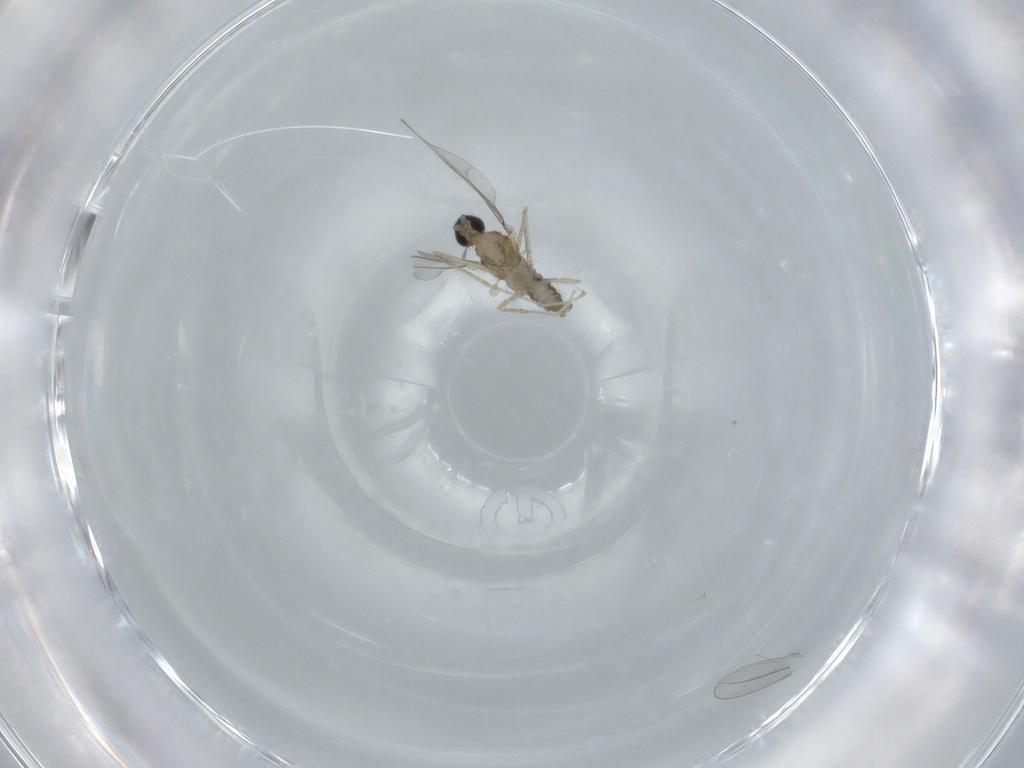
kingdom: Animalia
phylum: Arthropoda
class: Insecta
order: Diptera
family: Cecidomyiidae
